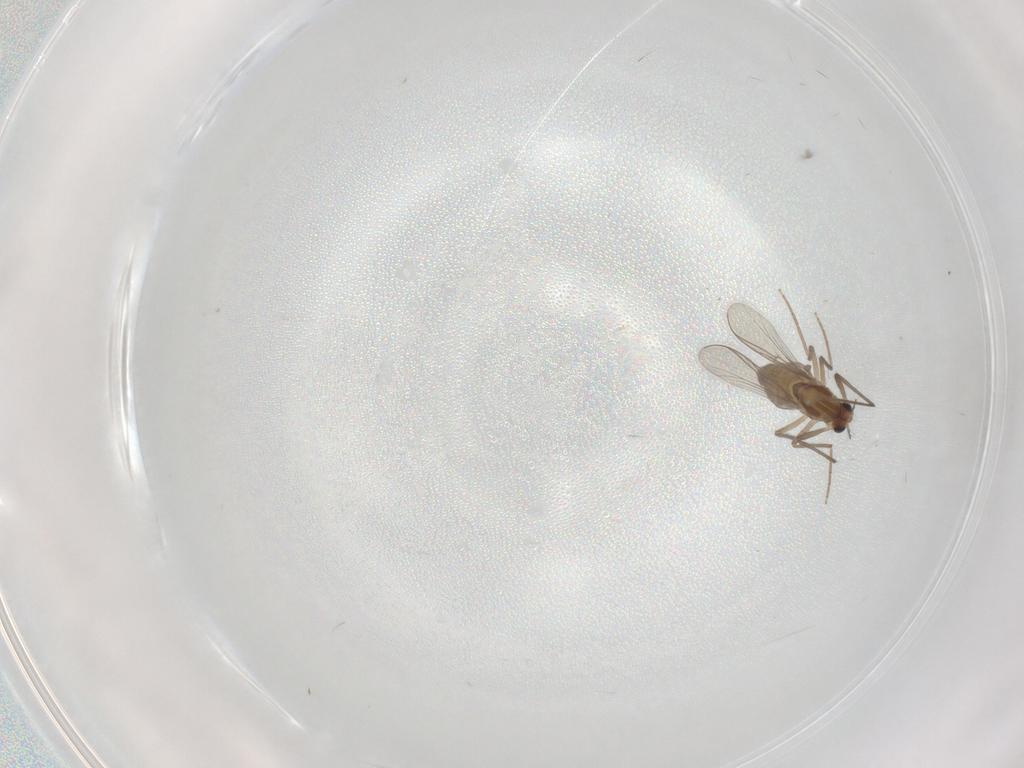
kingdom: Animalia
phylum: Arthropoda
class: Insecta
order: Diptera
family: Chironomidae
